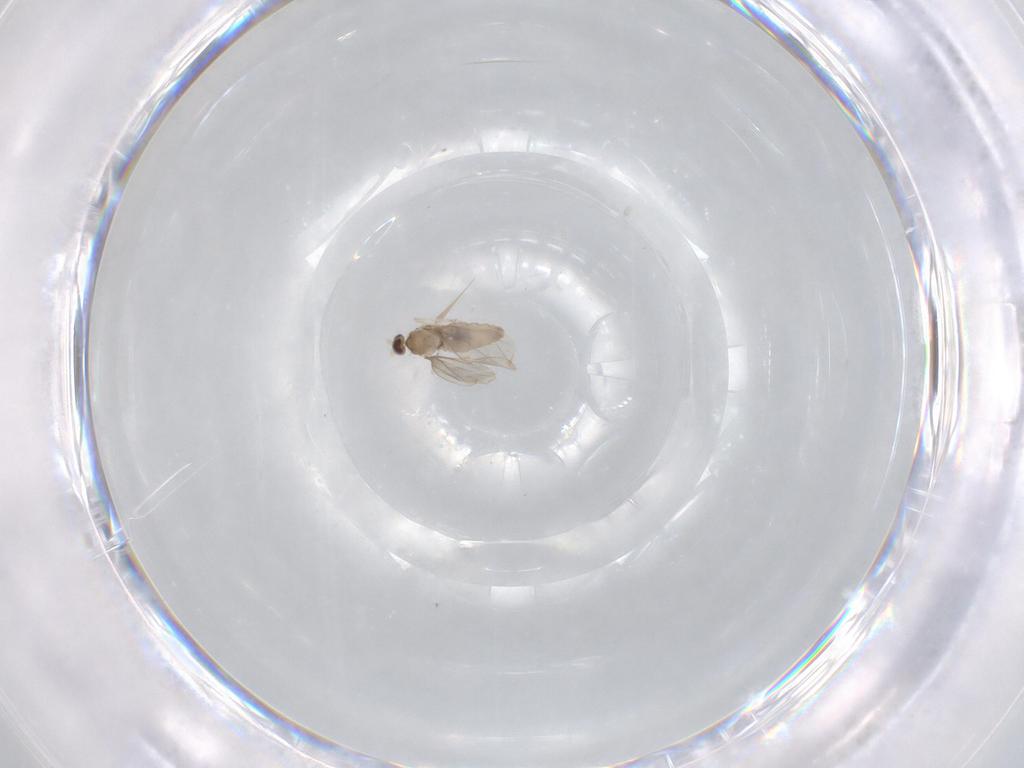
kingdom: Animalia
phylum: Arthropoda
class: Insecta
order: Diptera
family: Cecidomyiidae
